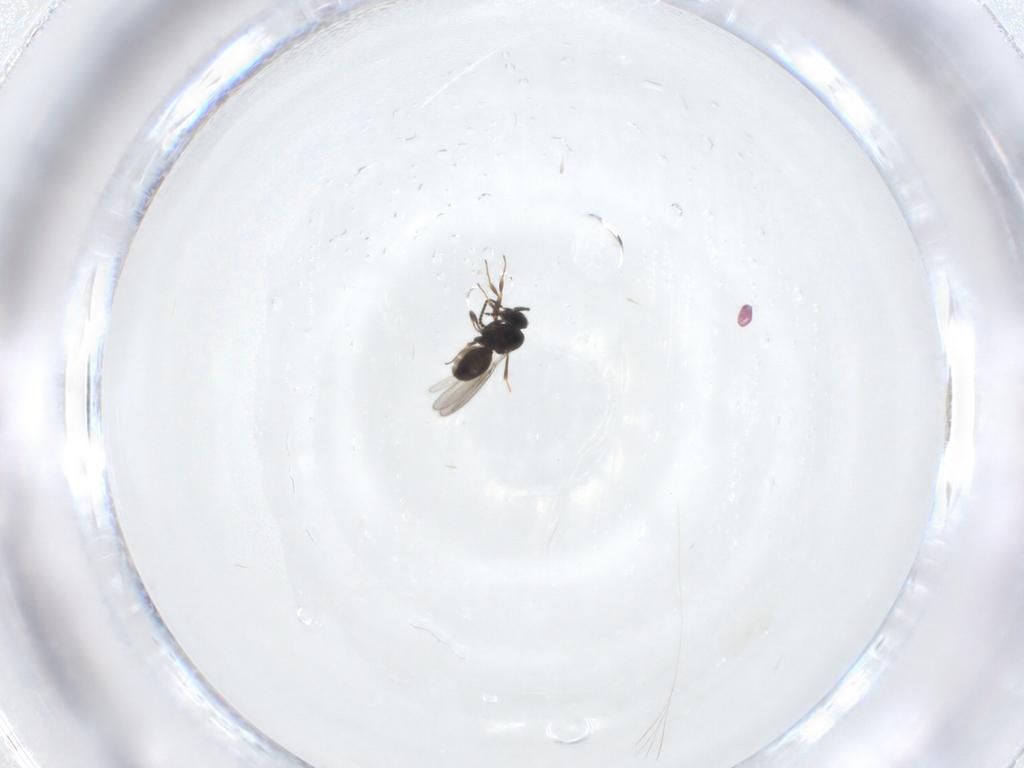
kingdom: Animalia
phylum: Arthropoda
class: Insecta
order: Hymenoptera
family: Scelionidae
